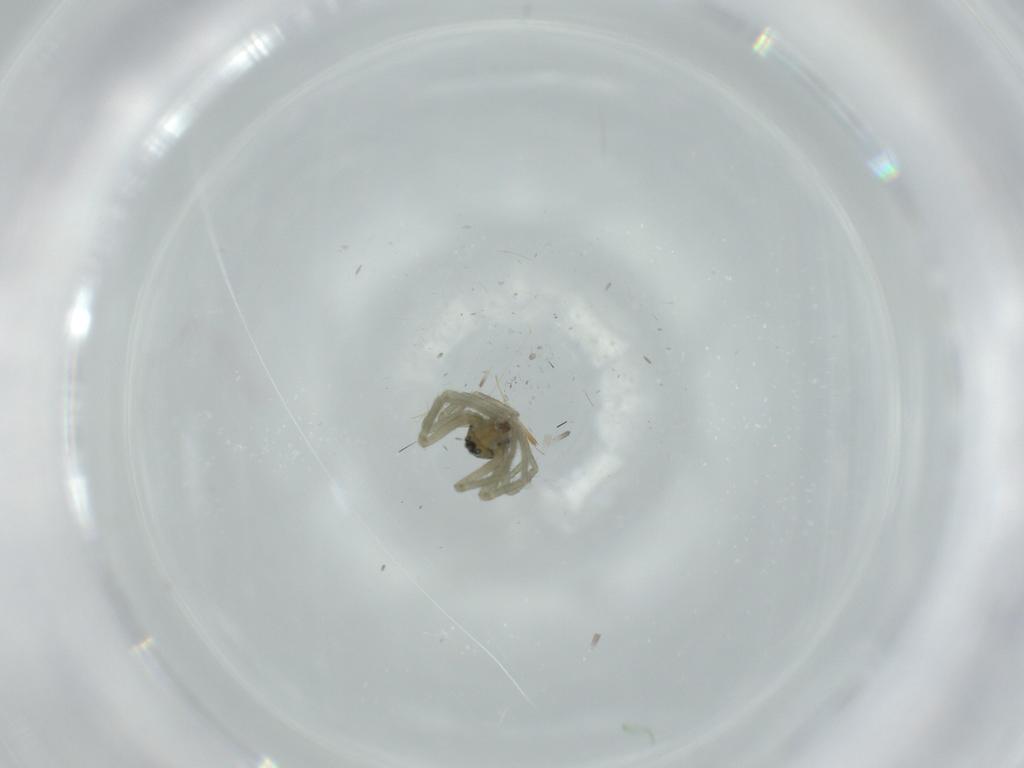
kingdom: Animalia
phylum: Arthropoda
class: Arachnida
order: Araneae
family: Linyphiidae
